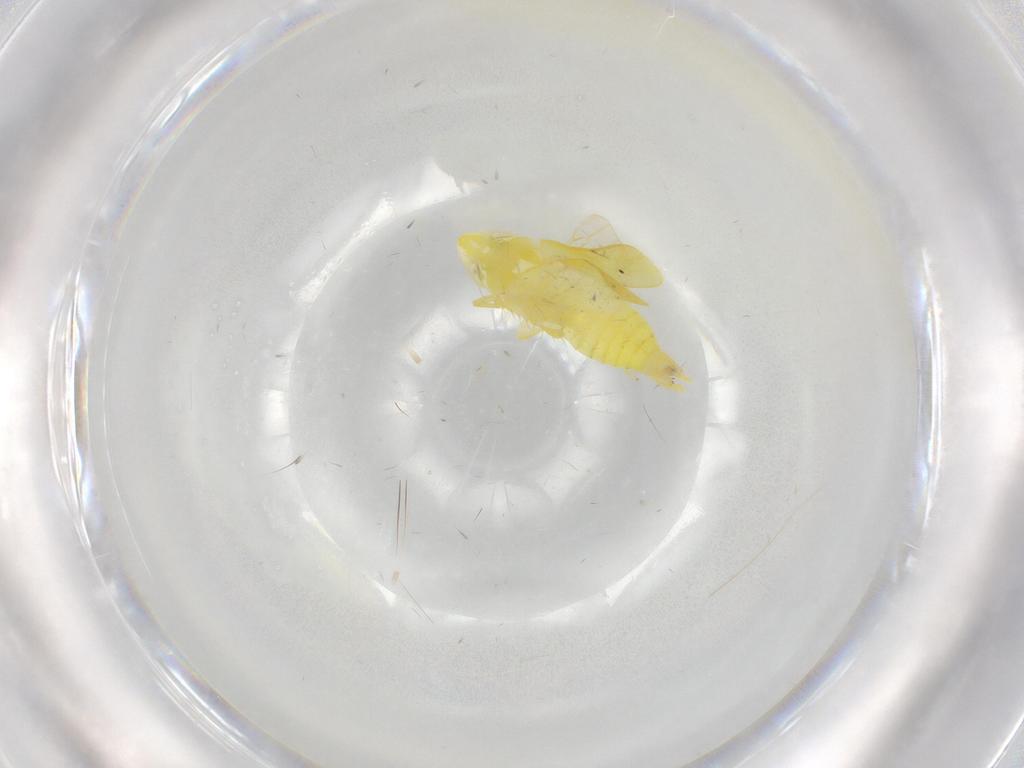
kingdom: Animalia
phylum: Arthropoda
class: Insecta
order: Hemiptera
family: Cicadellidae
